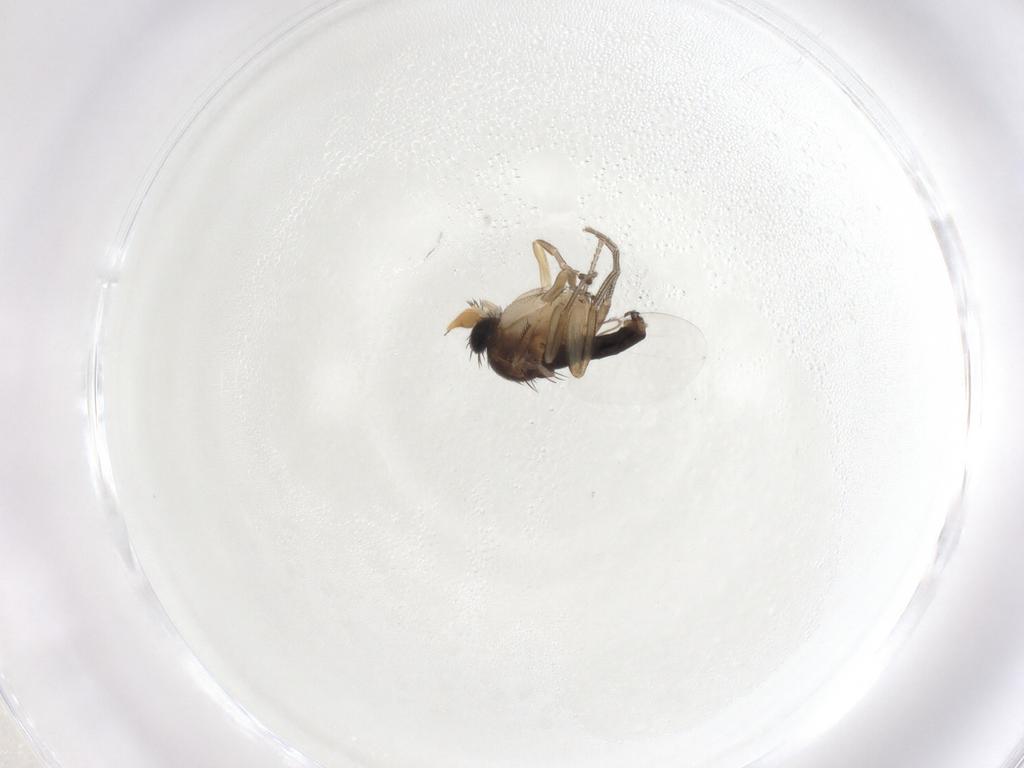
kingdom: Animalia
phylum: Arthropoda
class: Insecta
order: Diptera
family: Phoridae
